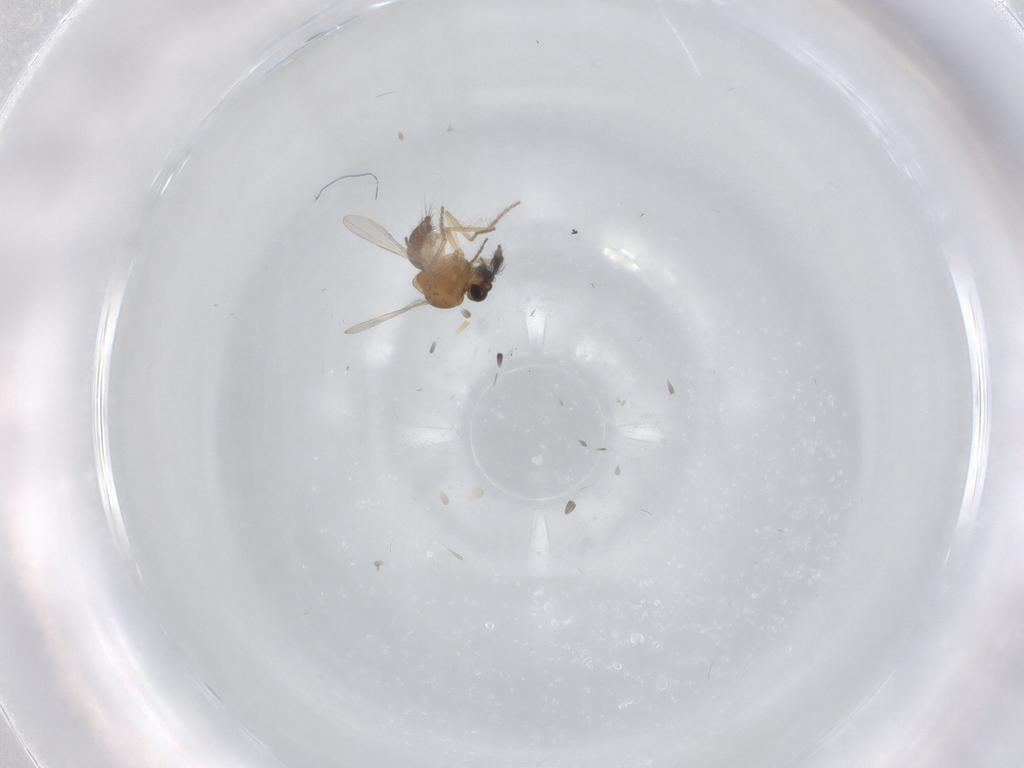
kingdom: Animalia
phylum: Arthropoda
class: Insecta
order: Diptera
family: Ceratopogonidae
